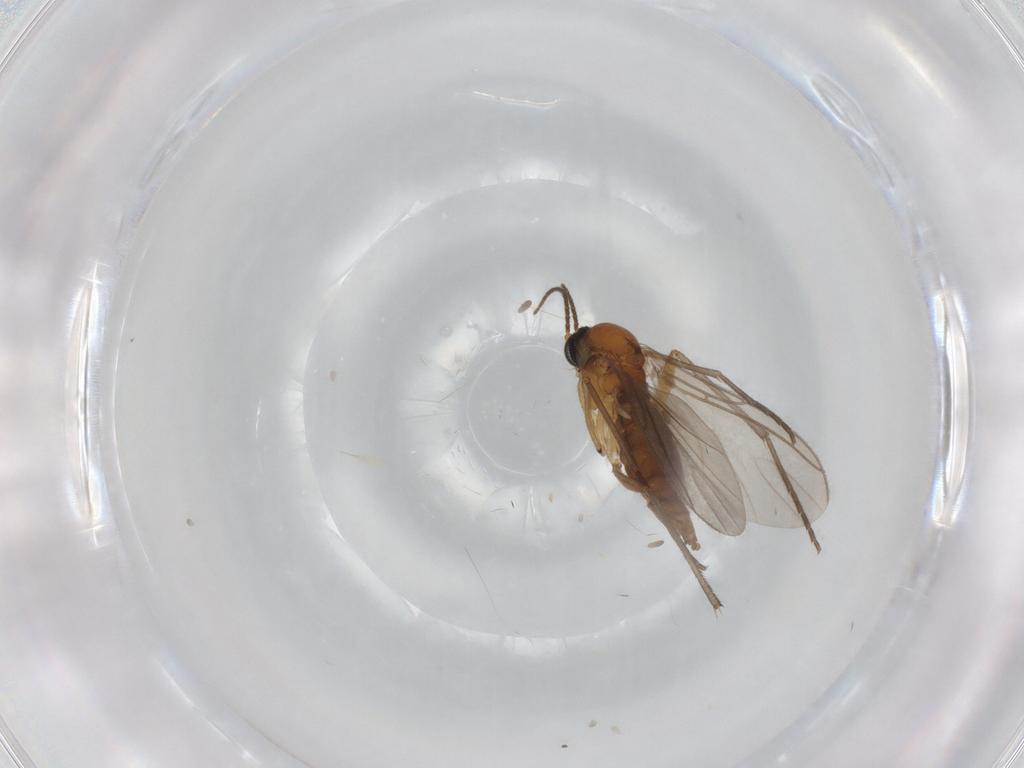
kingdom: Animalia
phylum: Arthropoda
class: Insecta
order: Diptera
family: Sciaridae
